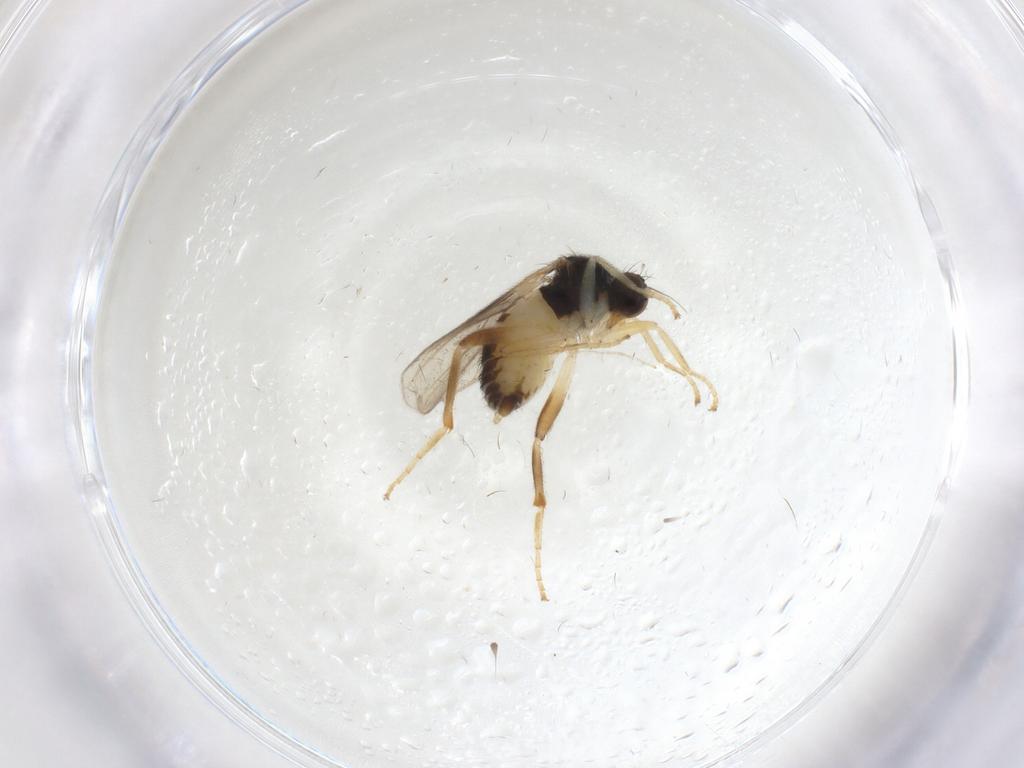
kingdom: Animalia
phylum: Arthropoda
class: Insecta
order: Diptera
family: Hybotidae
